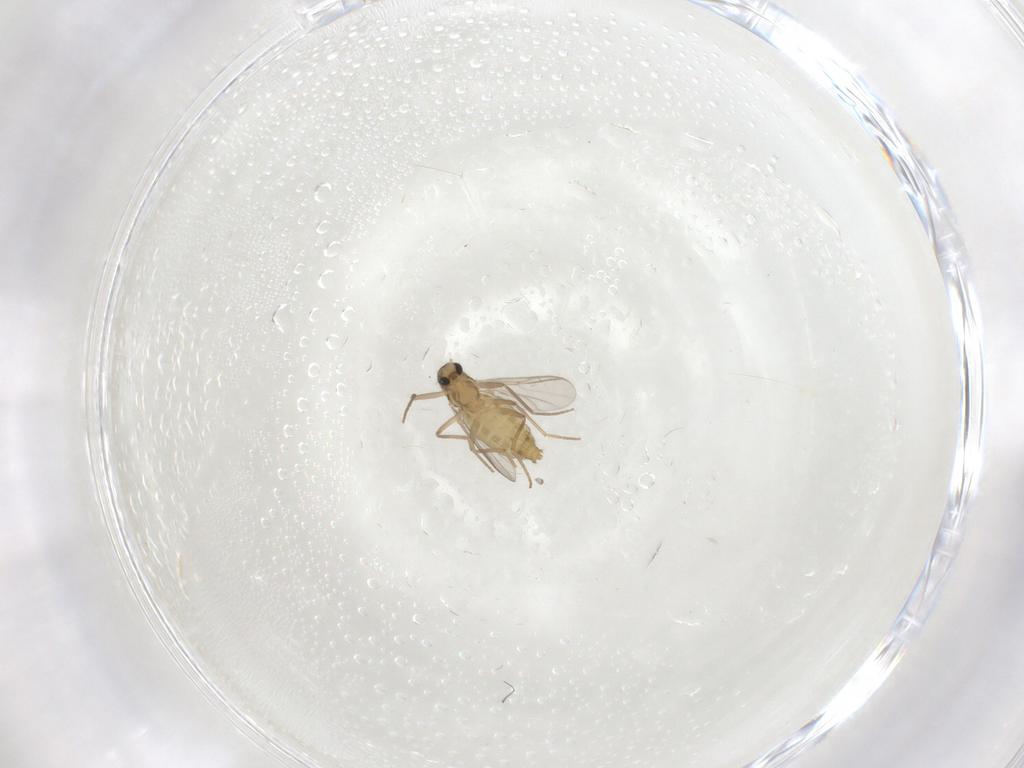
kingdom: Animalia
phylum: Arthropoda
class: Insecta
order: Diptera
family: Chironomidae
